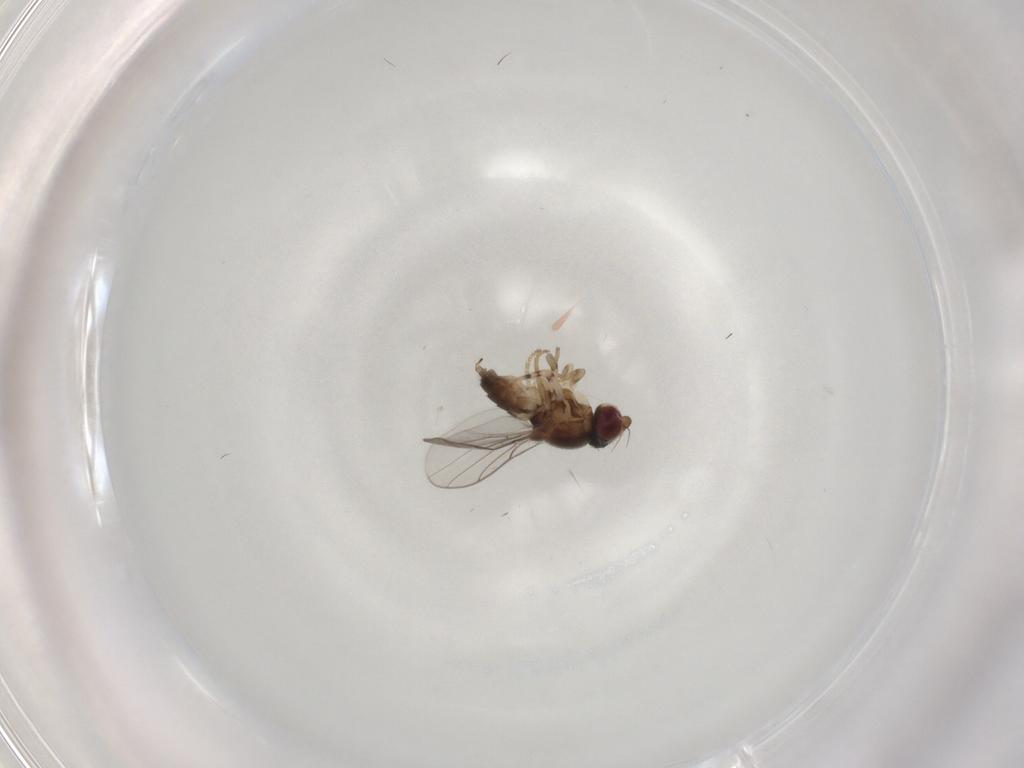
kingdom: Animalia
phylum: Arthropoda
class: Insecta
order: Diptera
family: Chloropidae
